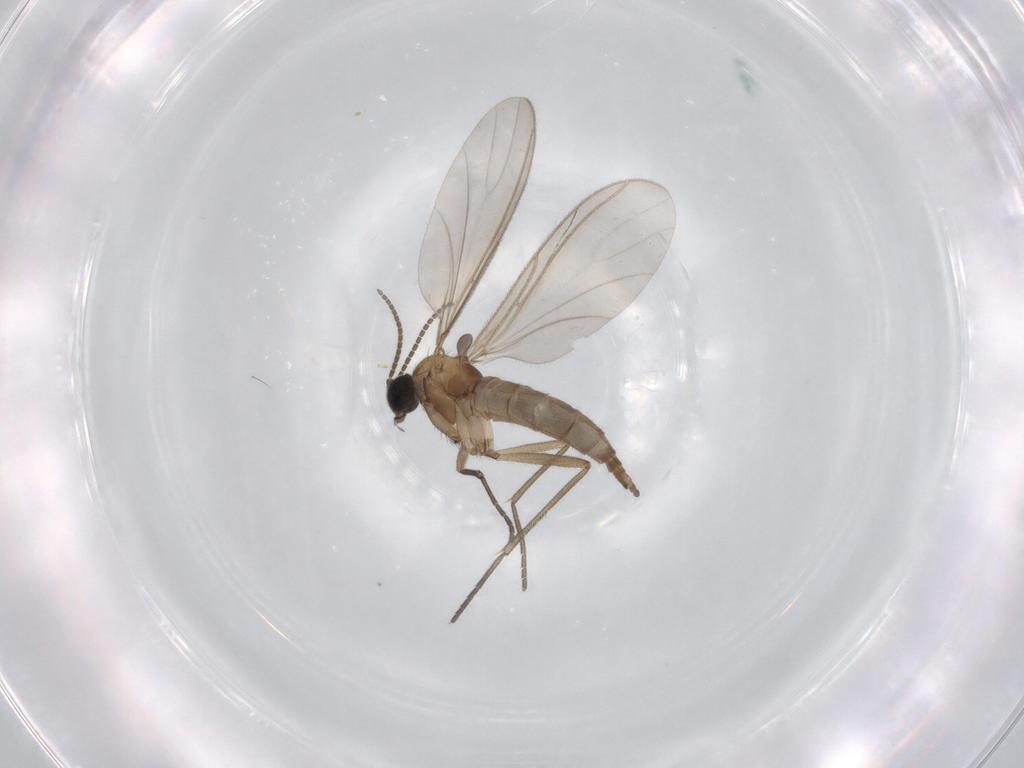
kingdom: Animalia
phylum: Arthropoda
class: Insecta
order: Diptera
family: Sciaridae
